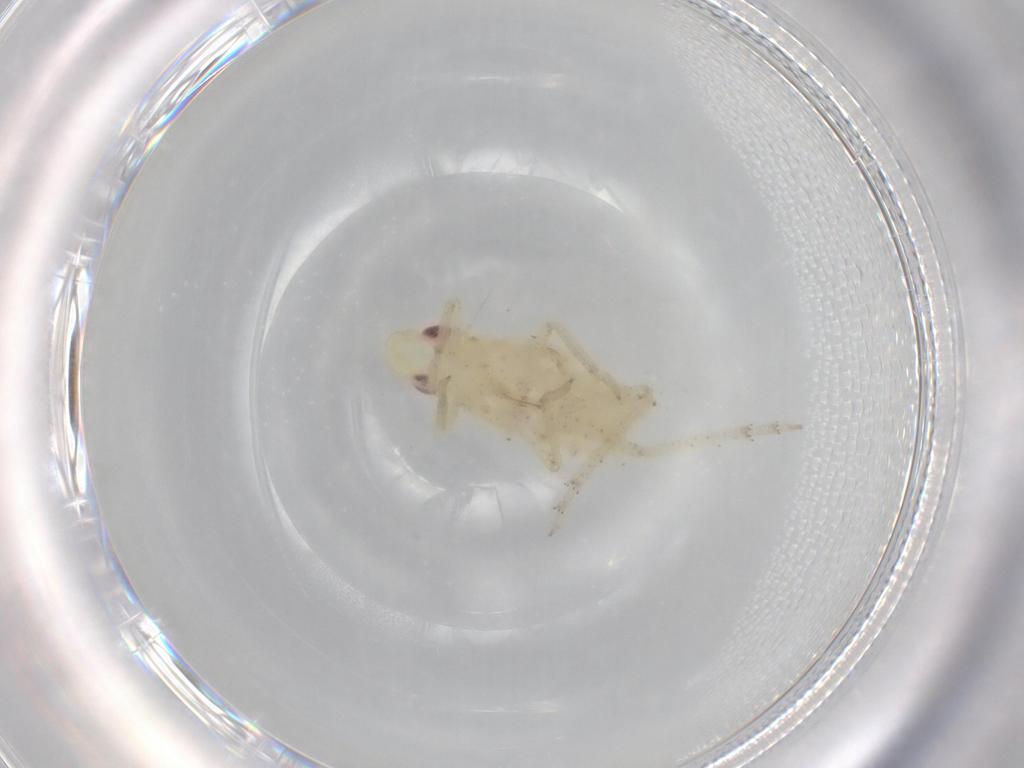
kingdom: Animalia
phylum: Arthropoda
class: Insecta
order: Hemiptera
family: Tropiduchidae
